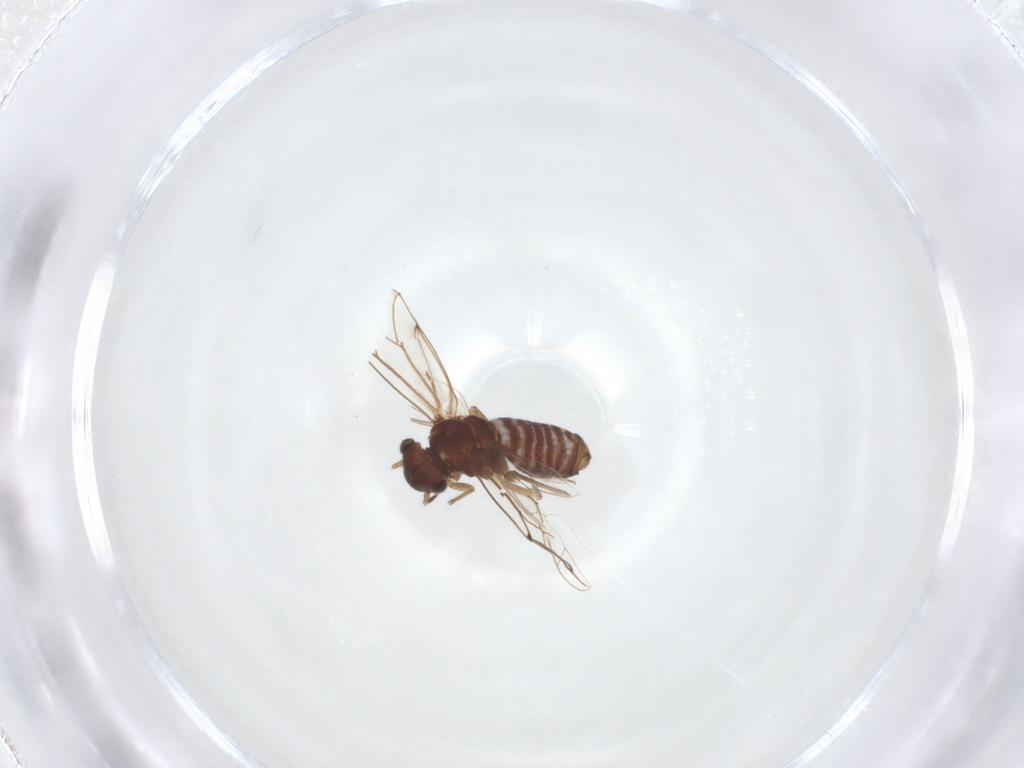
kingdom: Animalia
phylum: Arthropoda
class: Insecta
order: Psocodea
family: Lachesillidae
